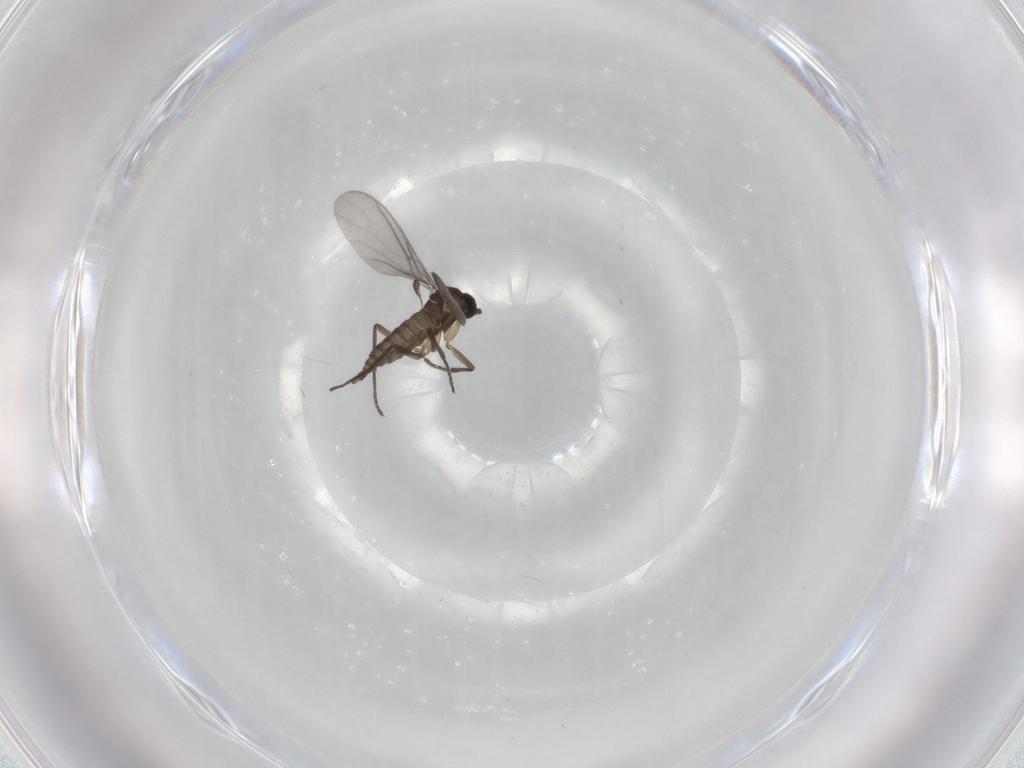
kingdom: Animalia
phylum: Arthropoda
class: Insecta
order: Diptera
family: Sciaridae
